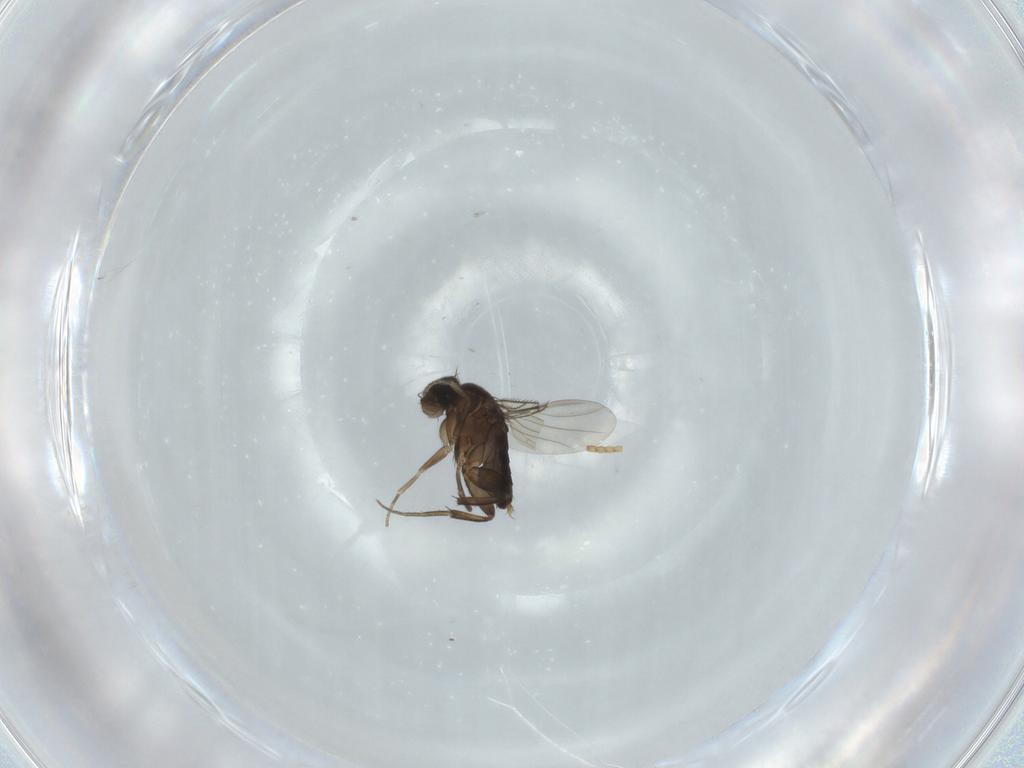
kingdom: Animalia
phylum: Arthropoda
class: Insecta
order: Diptera
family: Phoridae
